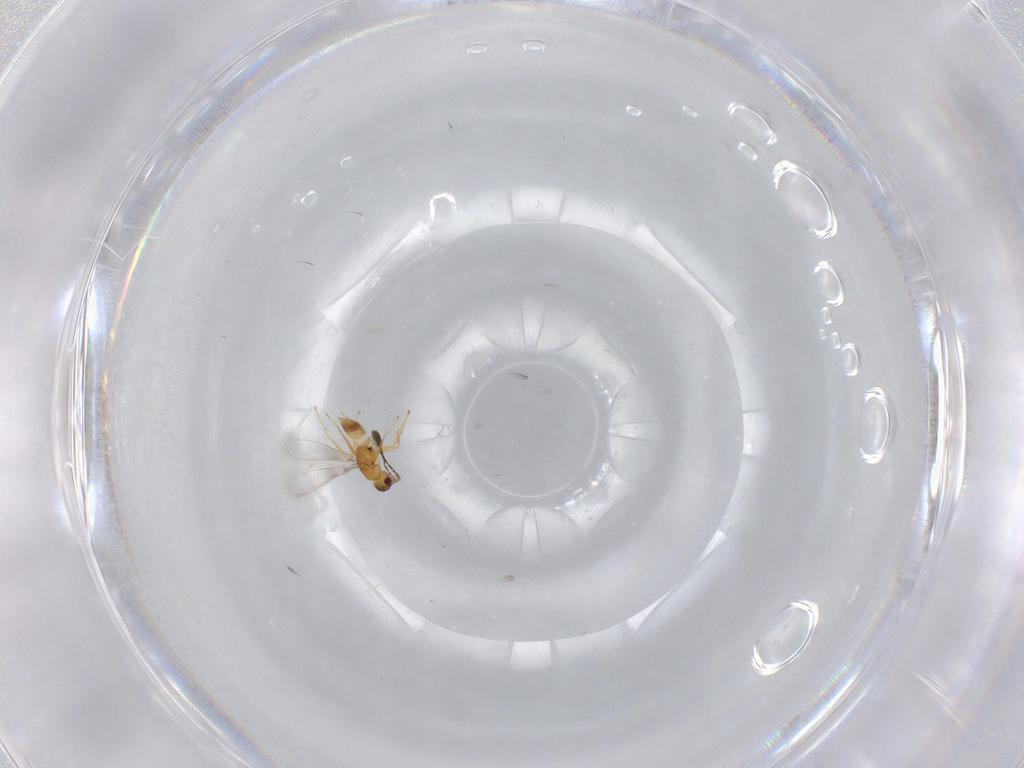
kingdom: Animalia
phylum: Arthropoda
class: Insecta
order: Hymenoptera
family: Mymaridae
